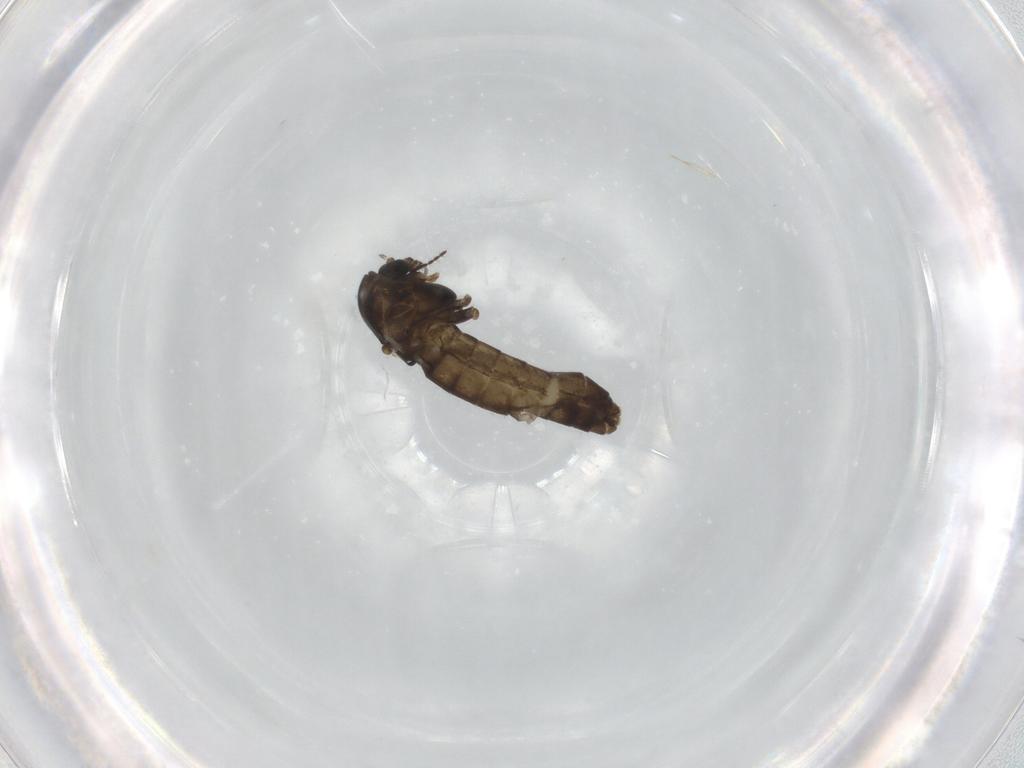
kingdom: Animalia
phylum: Arthropoda
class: Insecta
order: Diptera
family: Chironomidae
